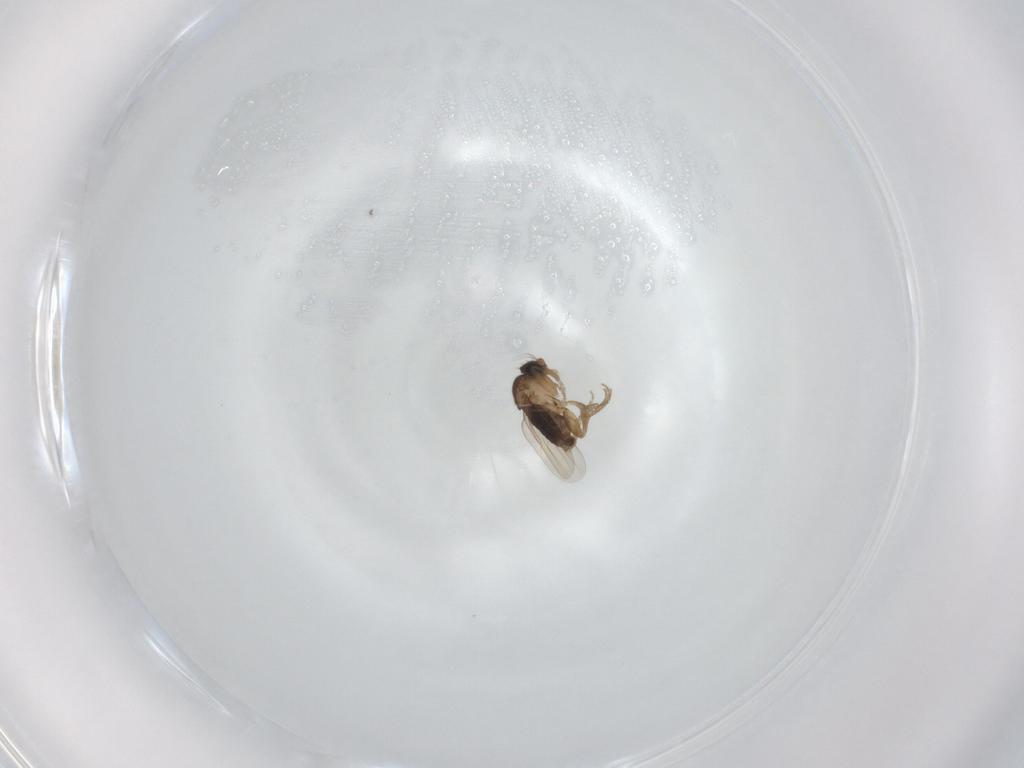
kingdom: Animalia
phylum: Arthropoda
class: Insecta
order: Diptera
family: Phoridae
